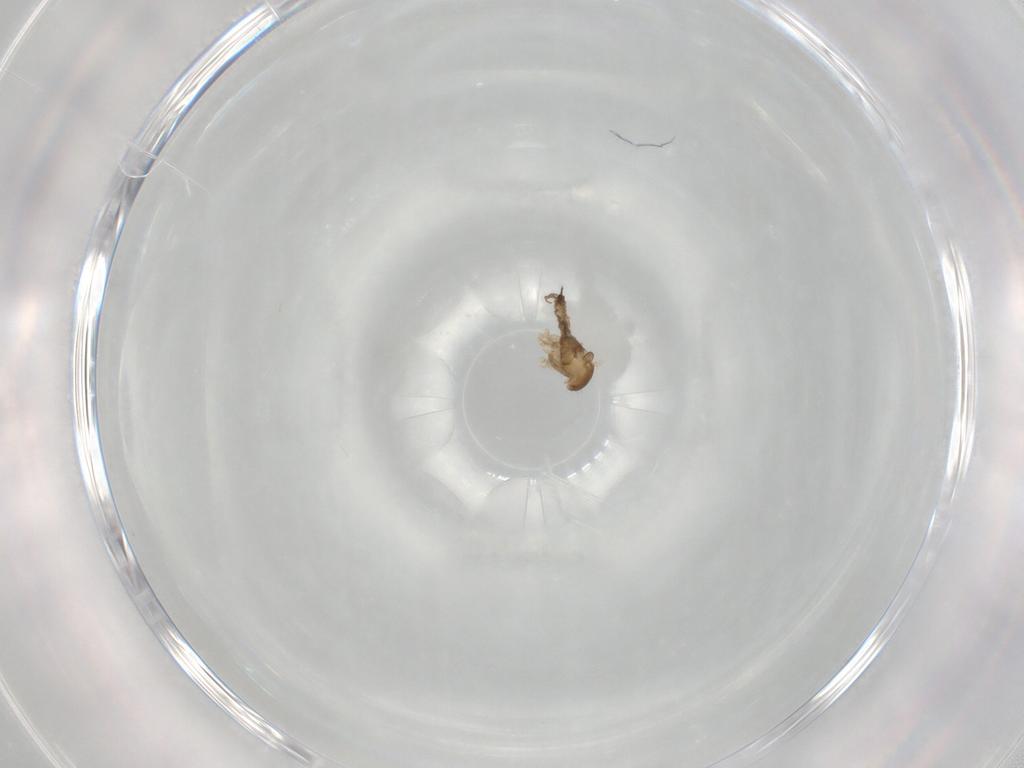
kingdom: Animalia
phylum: Arthropoda
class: Insecta
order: Diptera
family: Cecidomyiidae
